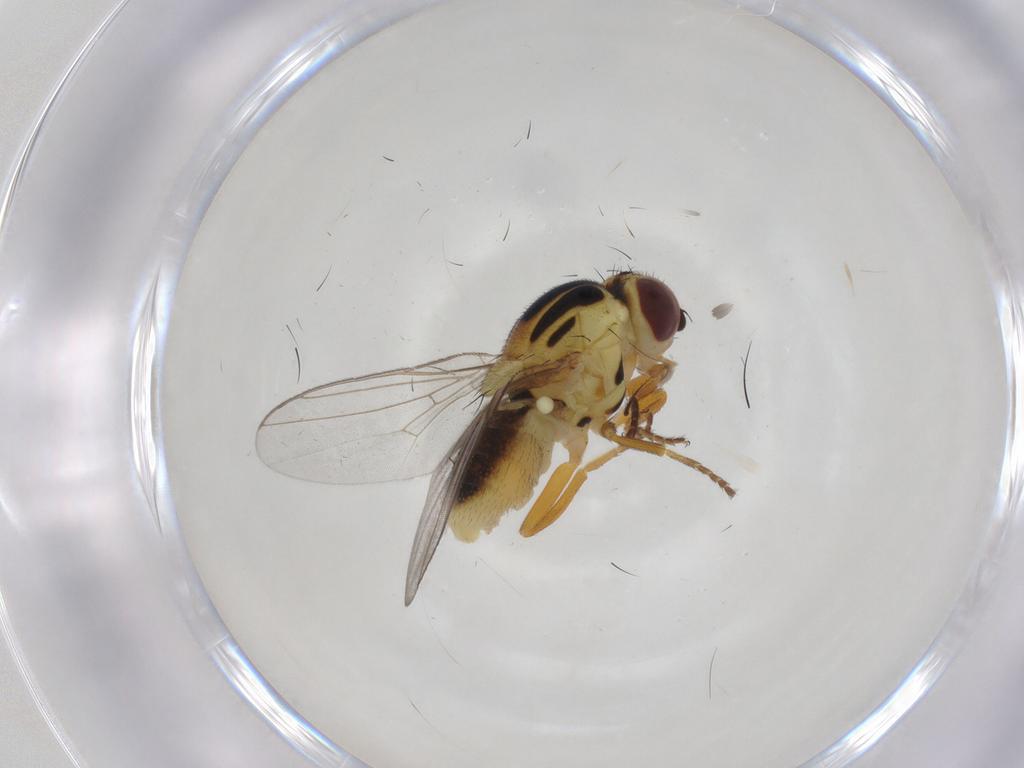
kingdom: Animalia
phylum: Arthropoda
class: Insecta
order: Diptera
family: Chloropidae
